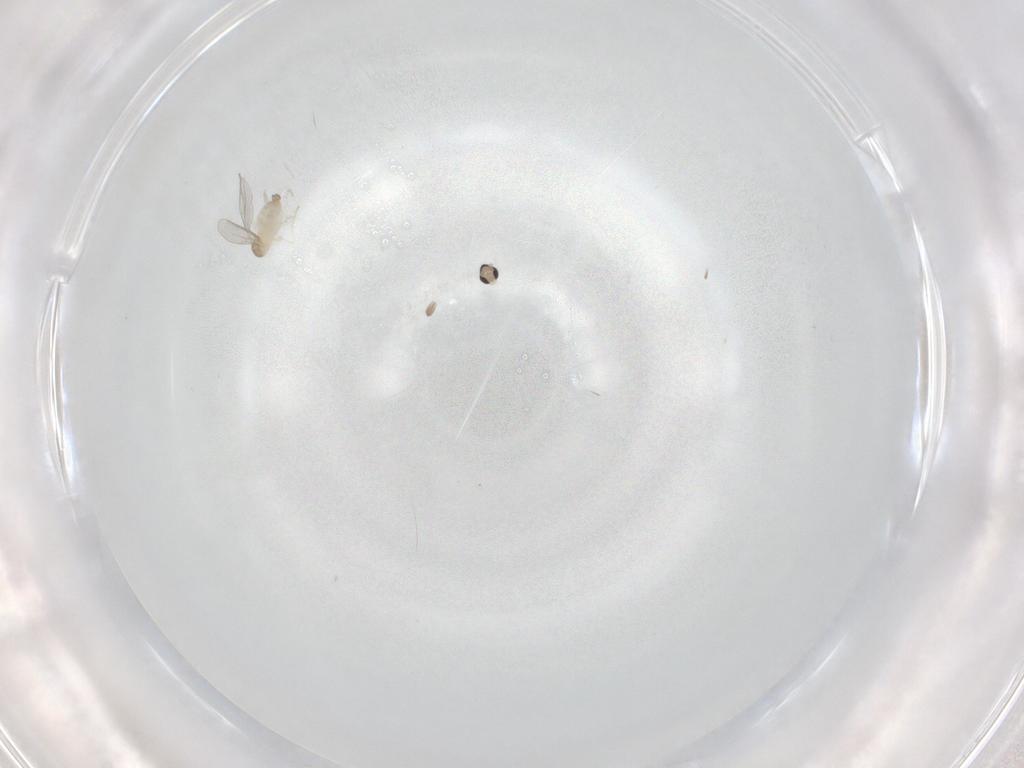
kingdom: Animalia
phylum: Arthropoda
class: Insecta
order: Diptera
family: Cecidomyiidae
